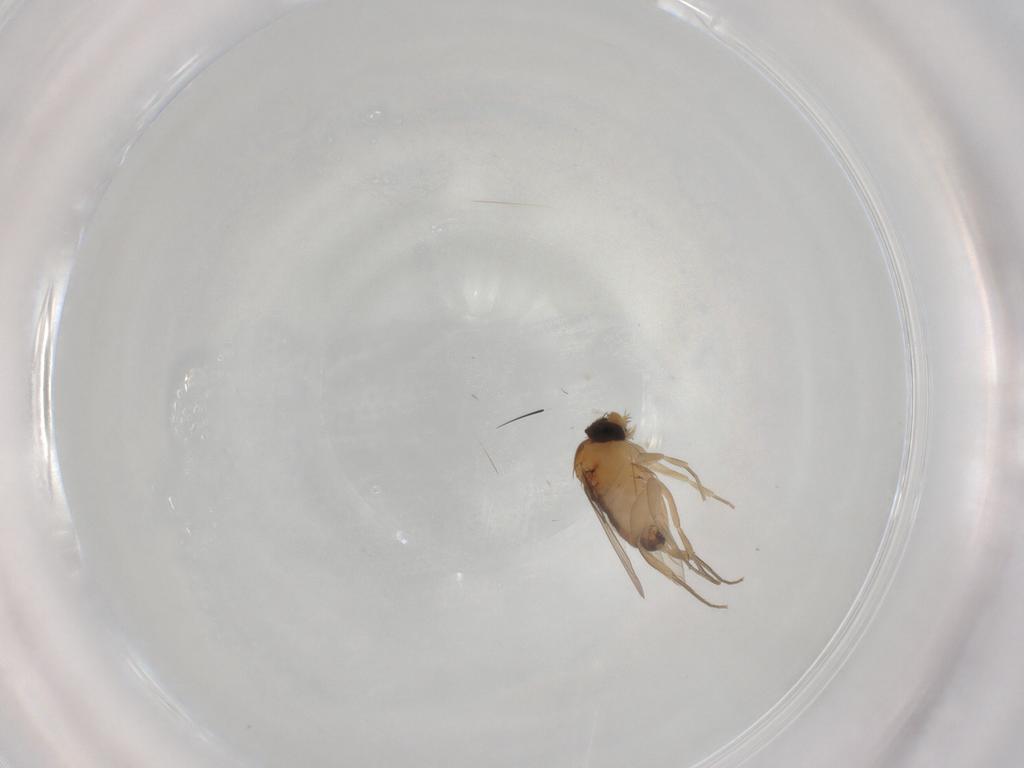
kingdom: Animalia
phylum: Arthropoda
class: Insecta
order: Diptera
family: Phoridae
